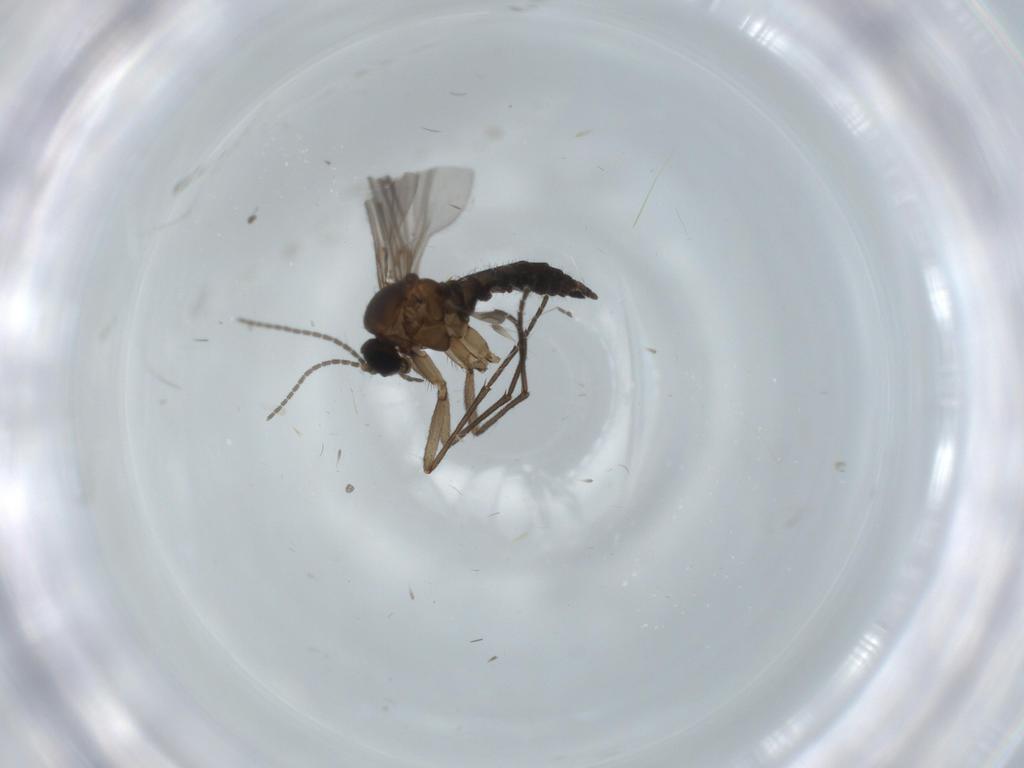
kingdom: Animalia
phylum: Arthropoda
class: Insecta
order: Diptera
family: Sciaridae
